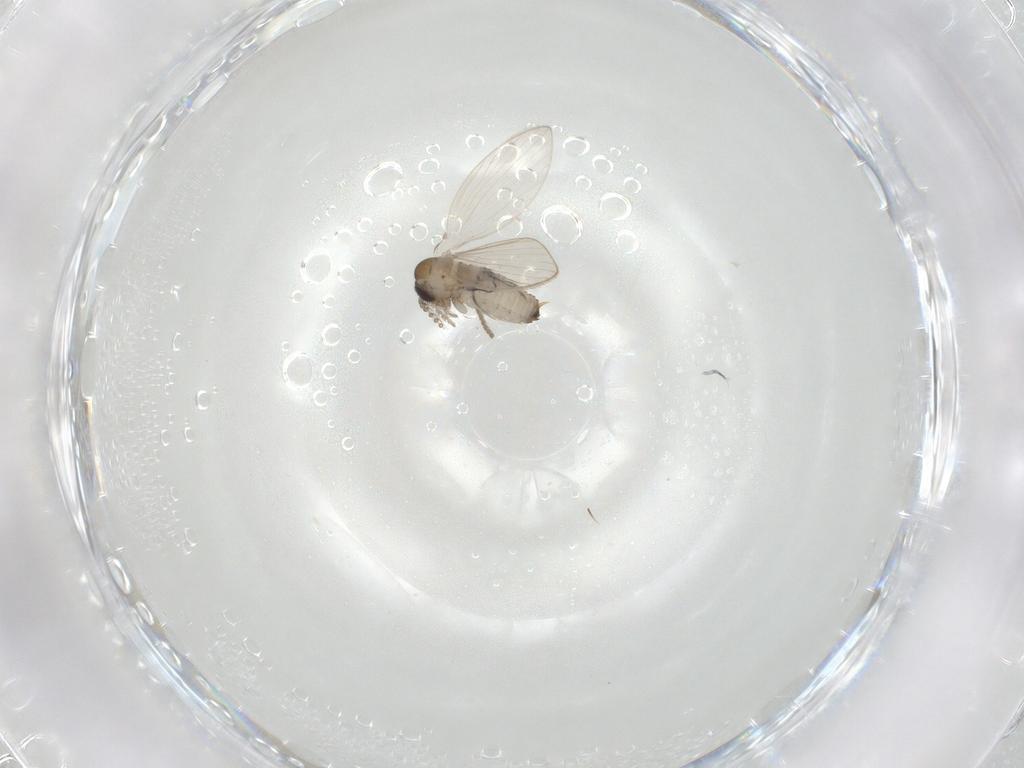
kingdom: Animalia
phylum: Arthropoda
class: Insecta
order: Diptera
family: Psychodidae
